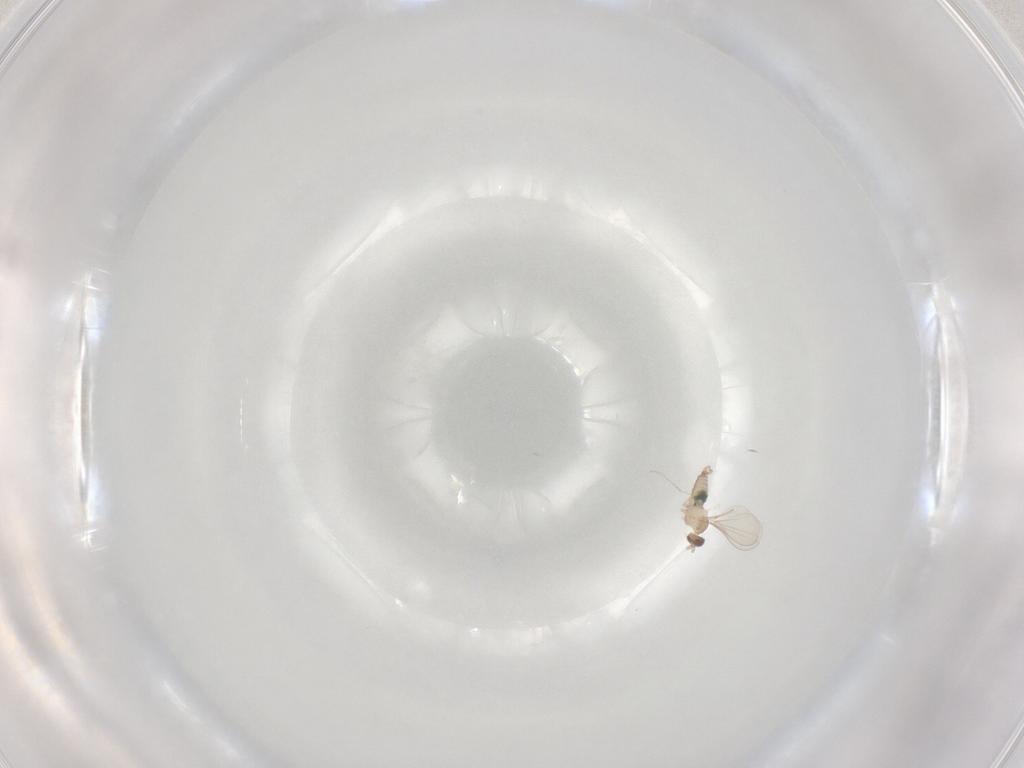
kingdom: Animalia
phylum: Arthropoda
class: Insecta
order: Diptera
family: Cecidomyiidae
